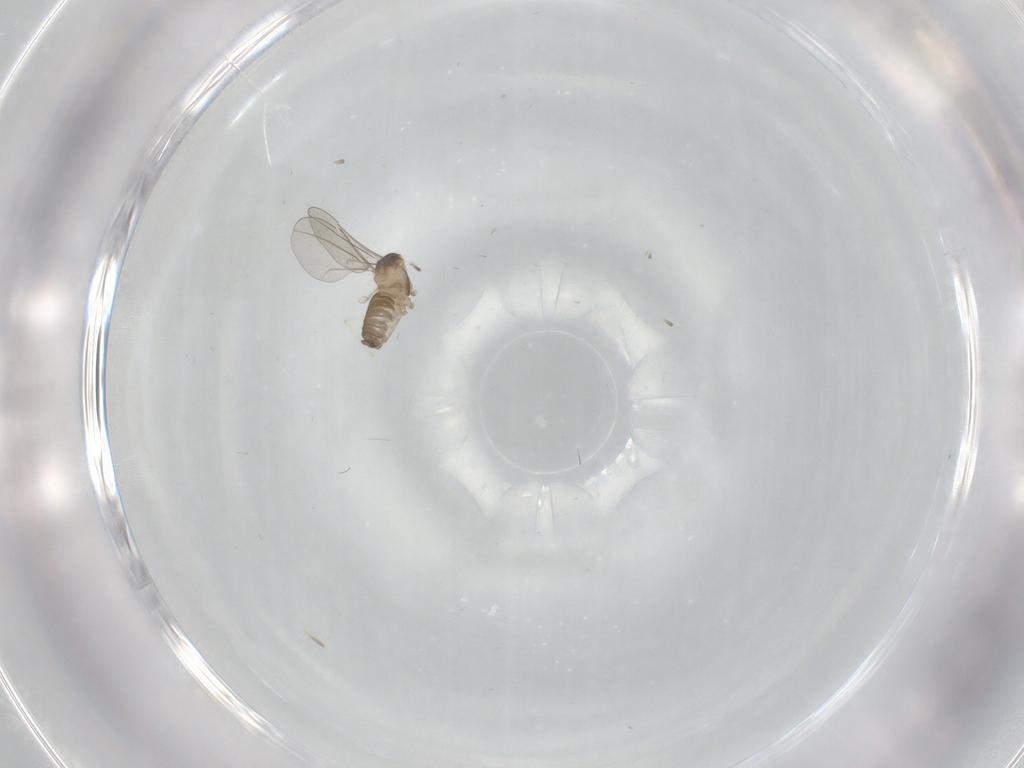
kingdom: Animalia
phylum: Arthropoda
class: Insecta
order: Diptera
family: Cecidomyiidae
